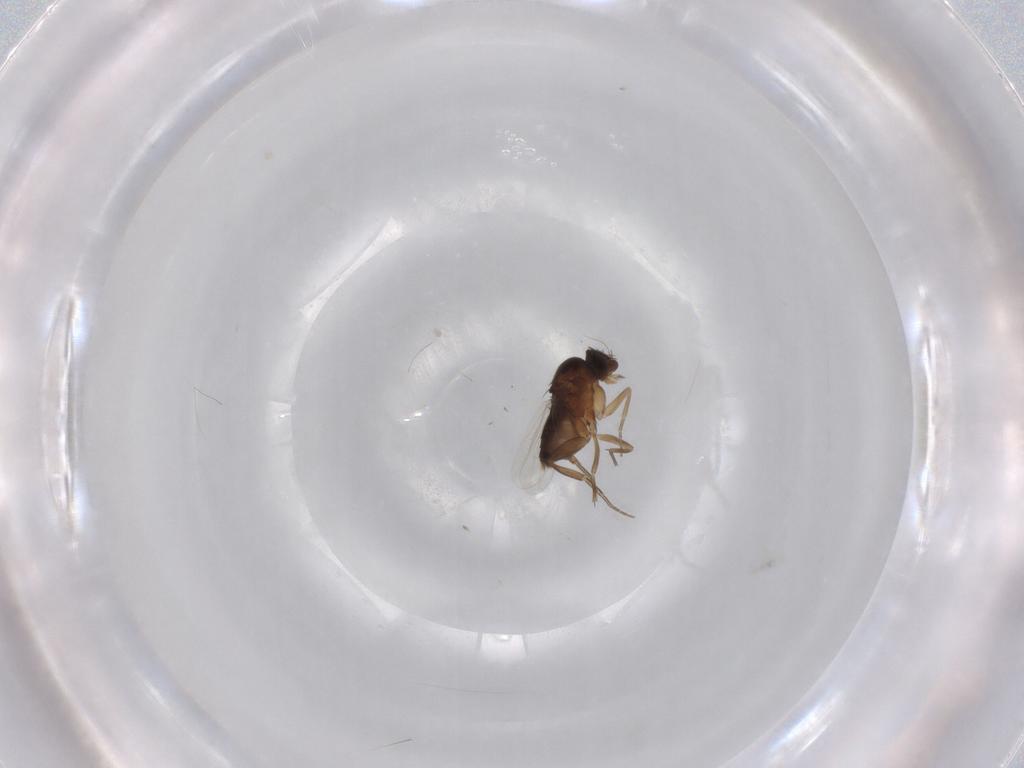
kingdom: Animalia
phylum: Arthropoda
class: Insecta
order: Diptera
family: Phoridae
